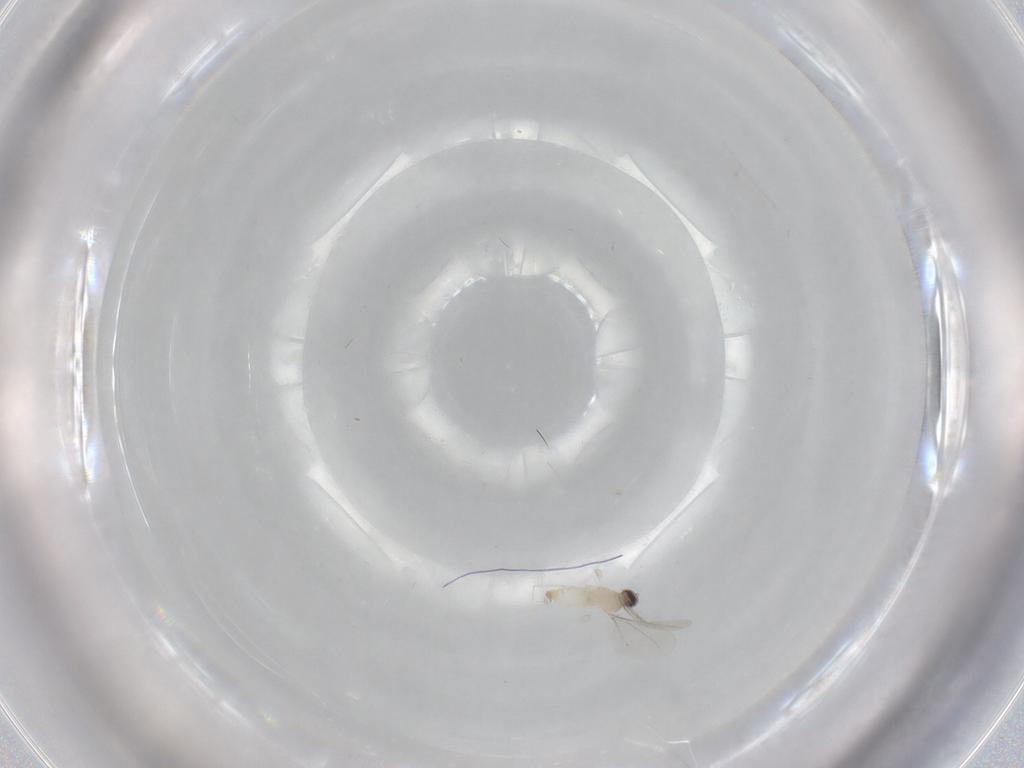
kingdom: Animalia
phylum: Arthropoda
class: Insecta
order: Diptera
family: Cecidomyiidae
